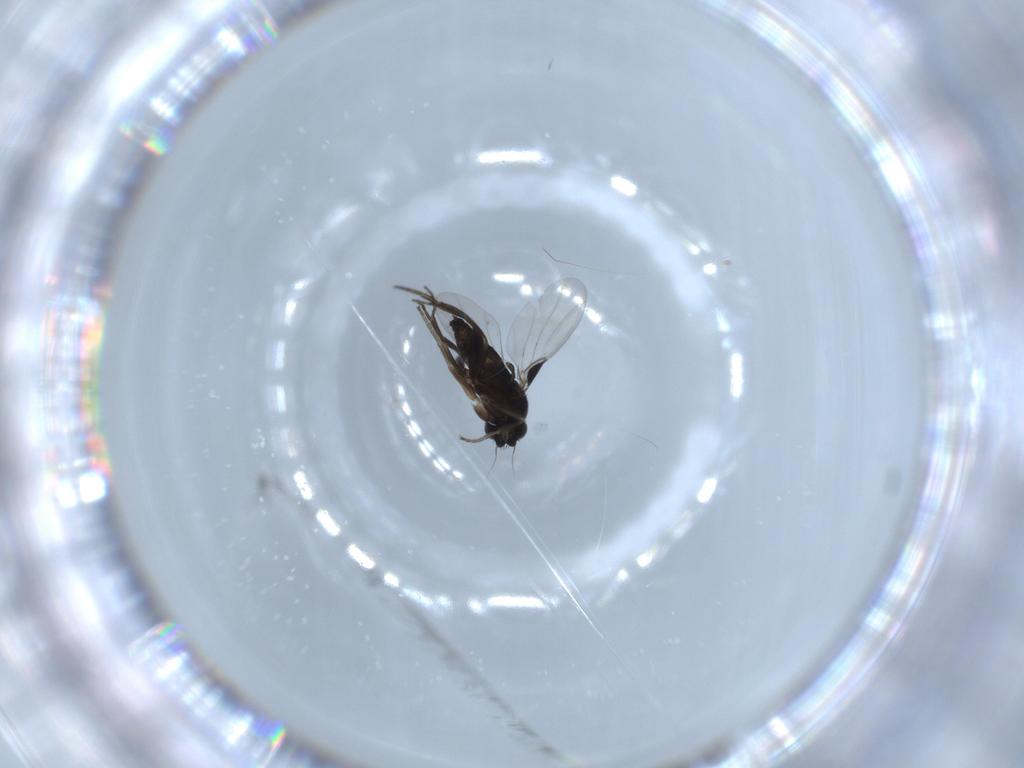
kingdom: Animalia
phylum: Arthropoda
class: Insecta
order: Diptera
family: Phoridae
